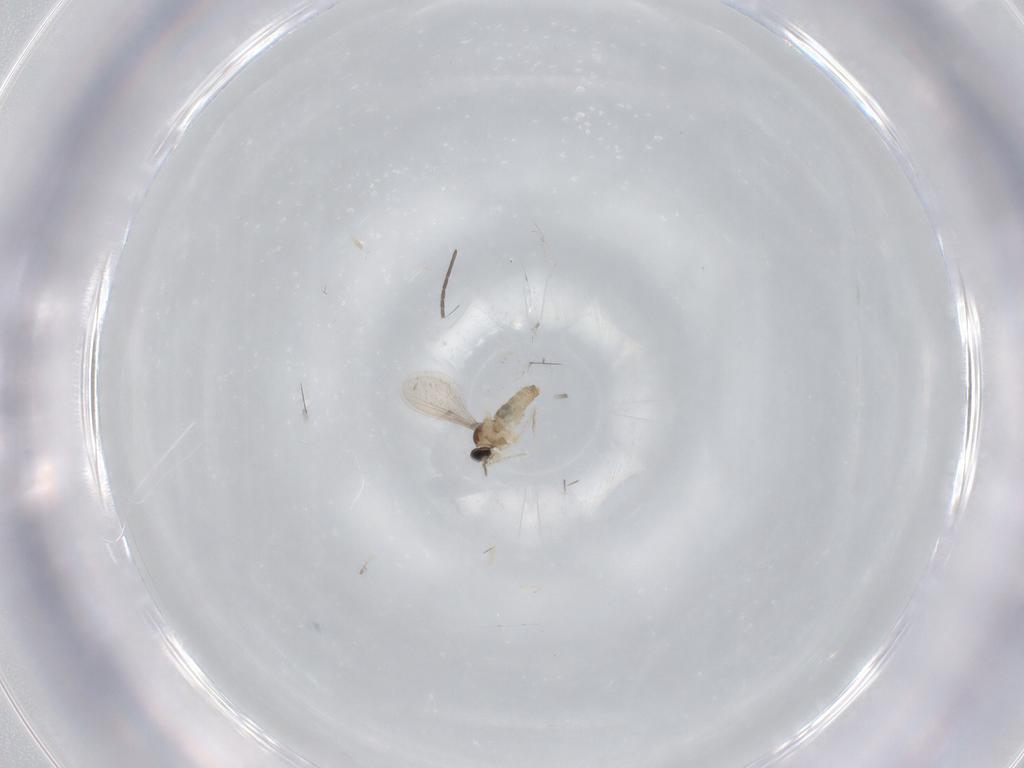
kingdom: Animalia
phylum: Arthropoda
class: Insecta
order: Diptera
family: Cecidomyiidae
